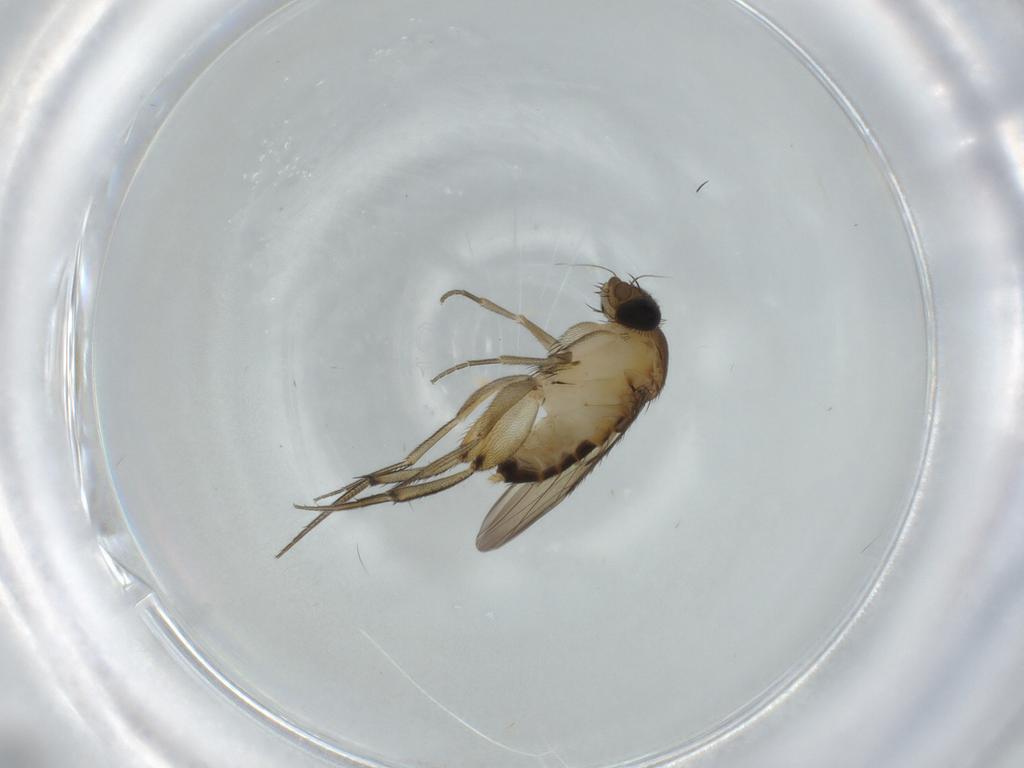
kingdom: Animalia
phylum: Arthropoda
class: Insecta
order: Diptera
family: Phoridae
